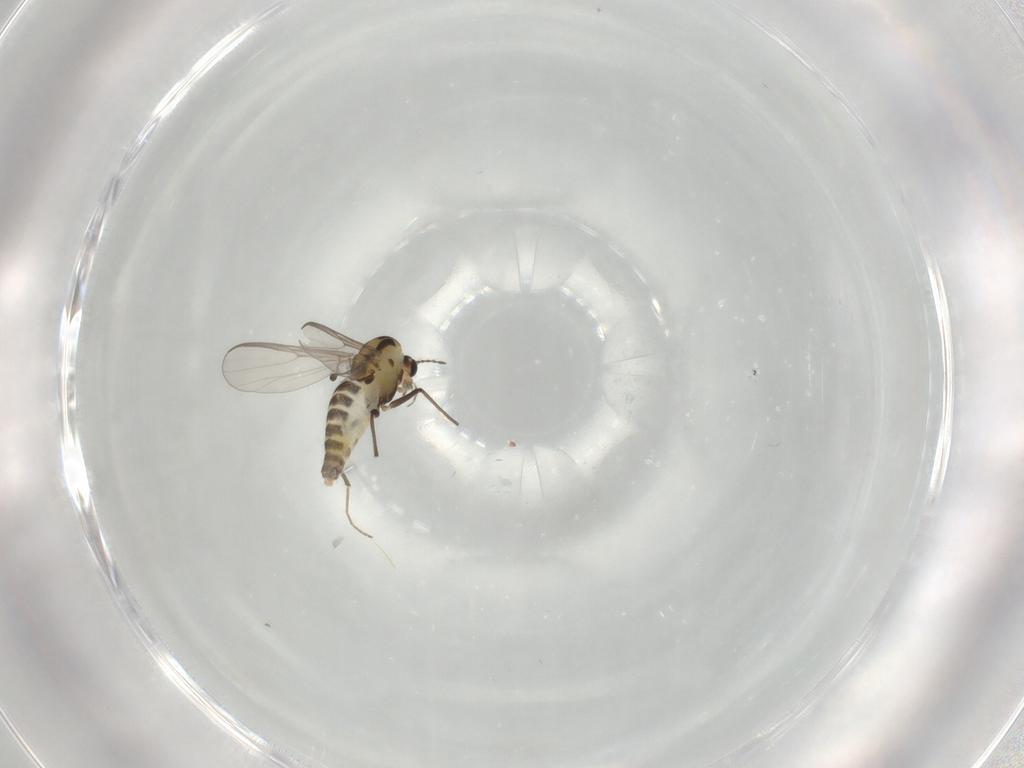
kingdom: Animalia
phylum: Arthropoda
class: Insecta
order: Diptera
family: Chironomidae
